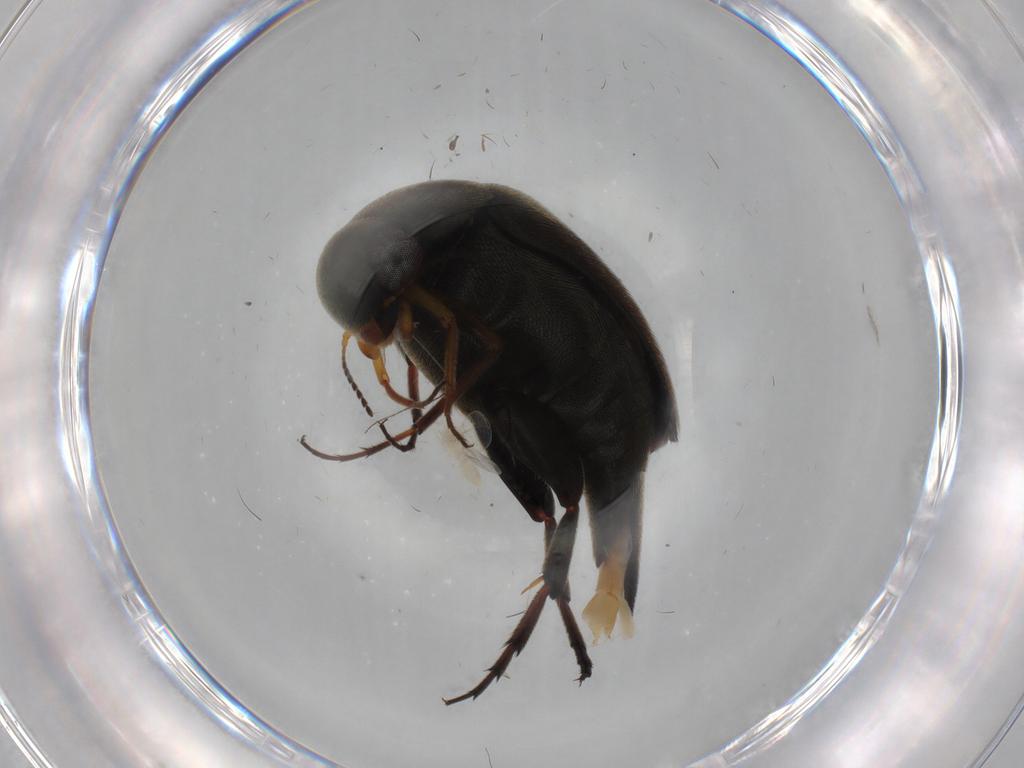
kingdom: Animalia
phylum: Arthropoda
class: Insecta
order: Coleoptera
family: Mordellidae
